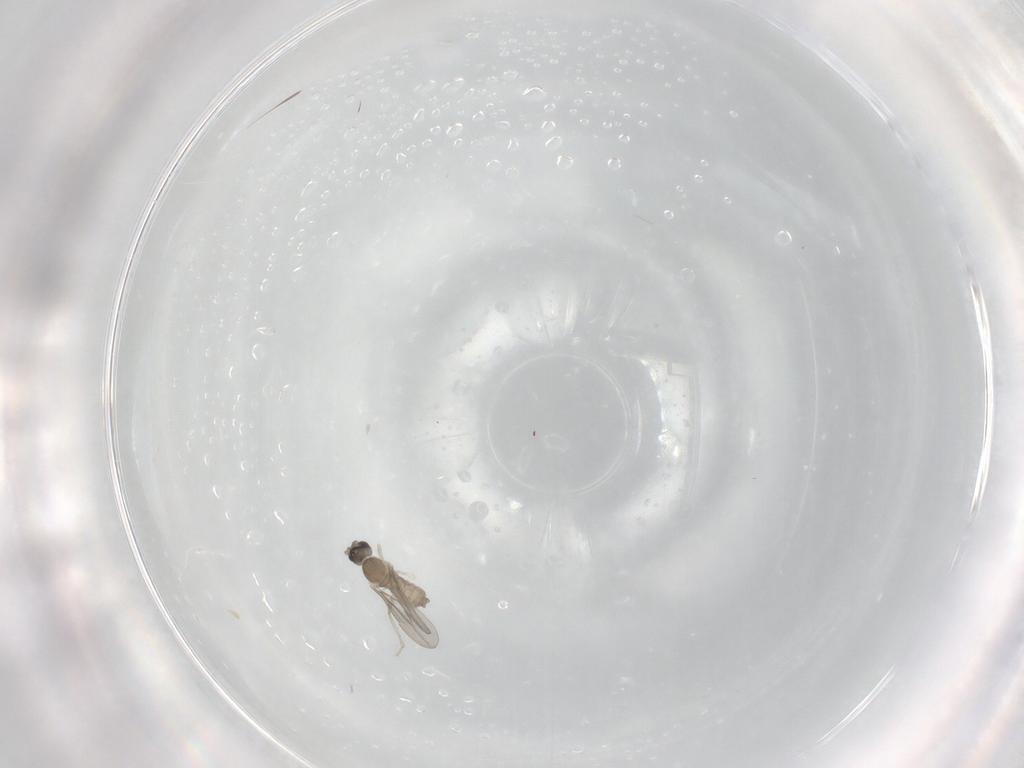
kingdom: Animalia
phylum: Arthropoda
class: Insecta
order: Diptera
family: Cecidomyiidae
